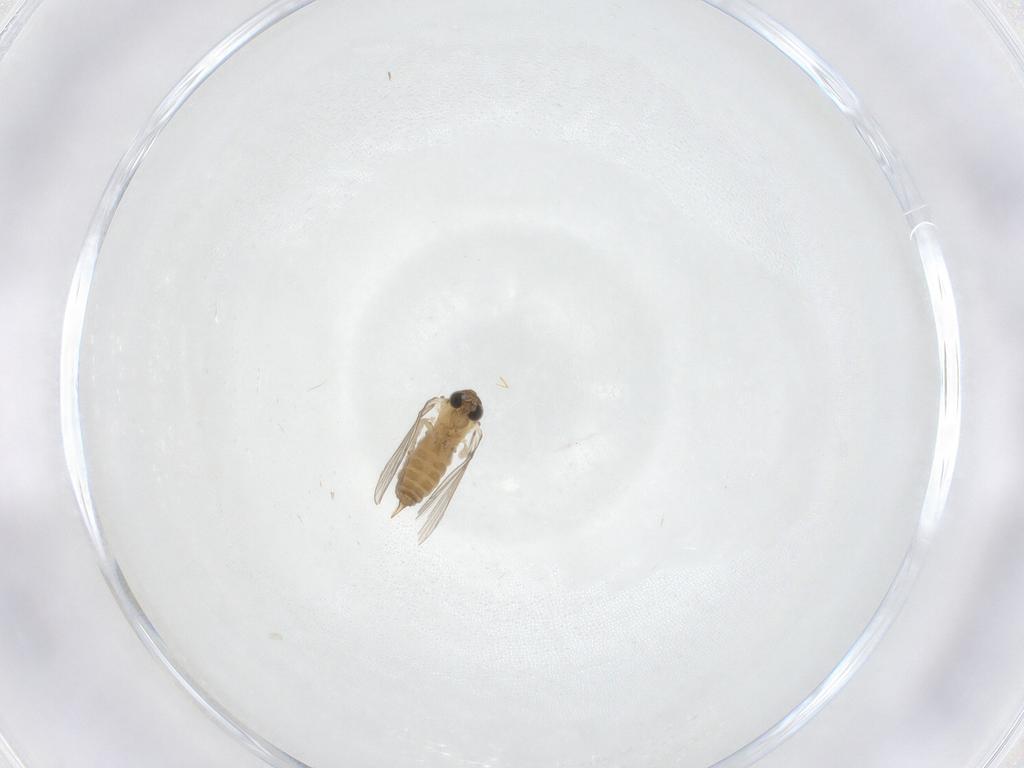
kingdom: Animalia
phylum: Arthropoda
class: Insecta
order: Diptera
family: Psychodidae
